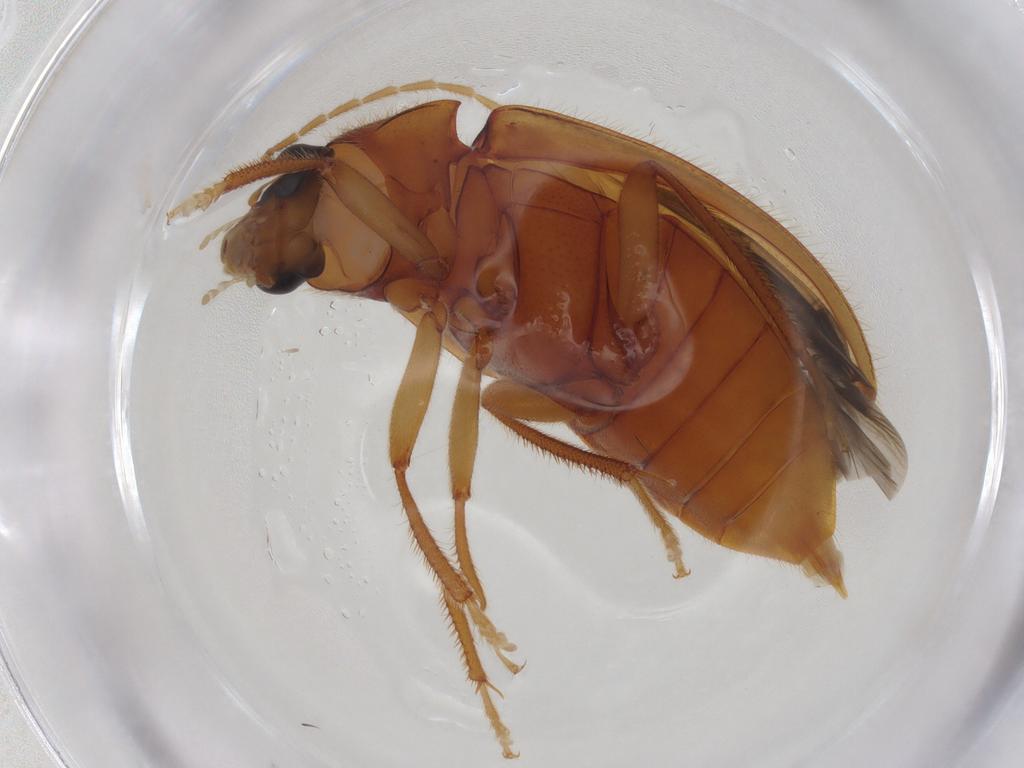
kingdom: Animalia
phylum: Arthropoda
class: Insecta
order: Coleoptera
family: Ptilodactylidae
